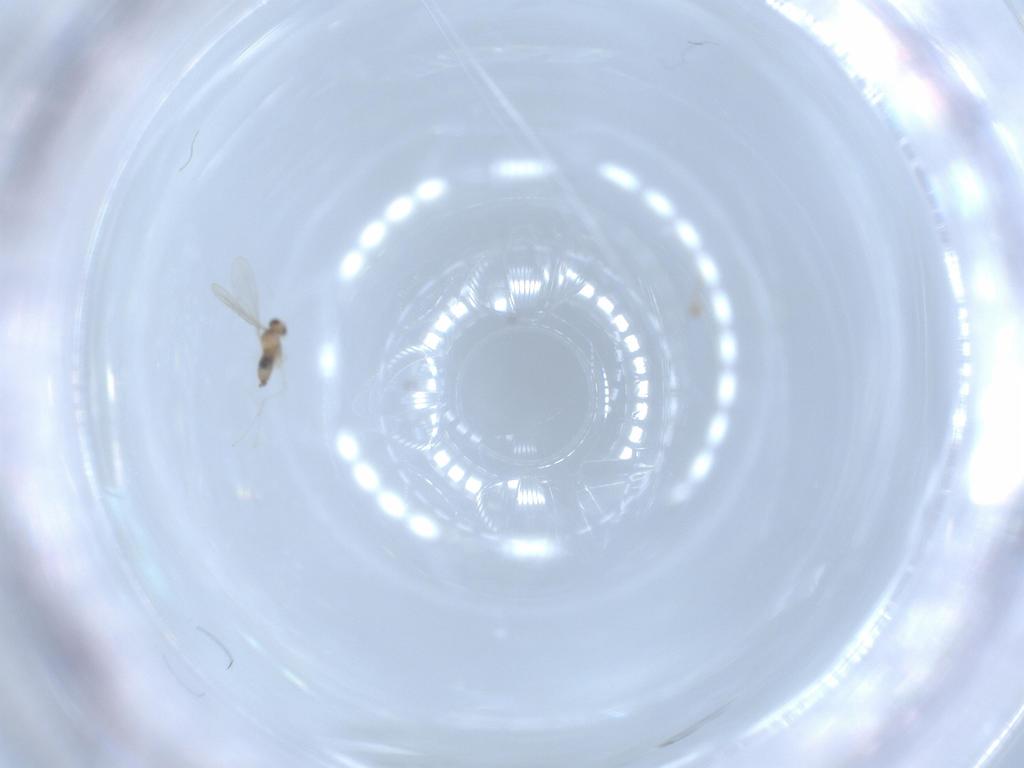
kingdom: Animalia
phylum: Arthropoda
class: Insecta
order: Diptera
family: Cecidomyiidae
